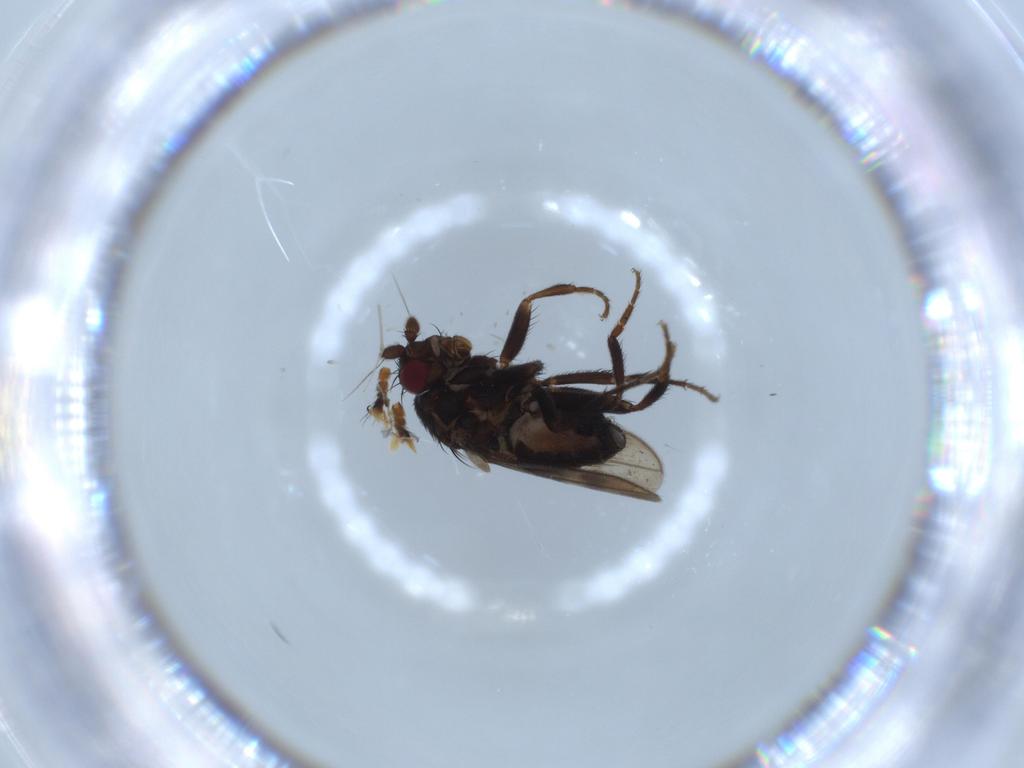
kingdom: Animalia
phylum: Arthropoda
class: Insecta
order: Diptera
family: Sphaeroceridae
